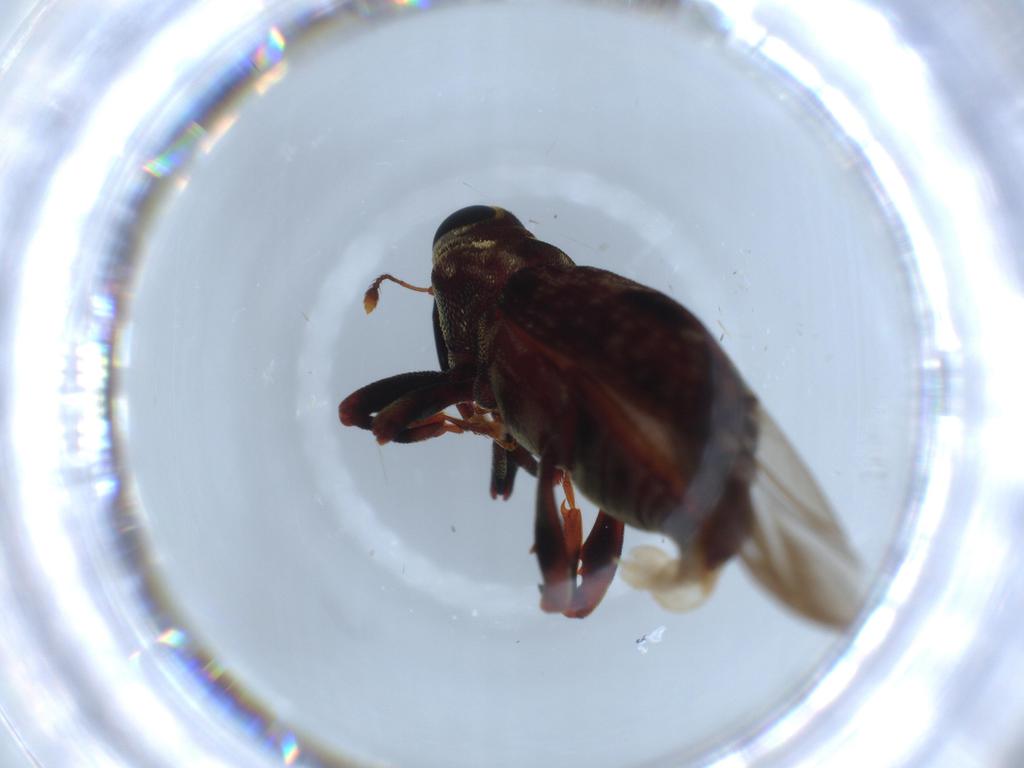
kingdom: Animalia
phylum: Arthropoda
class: Insecta
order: Coleoptera
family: Curculionidae
